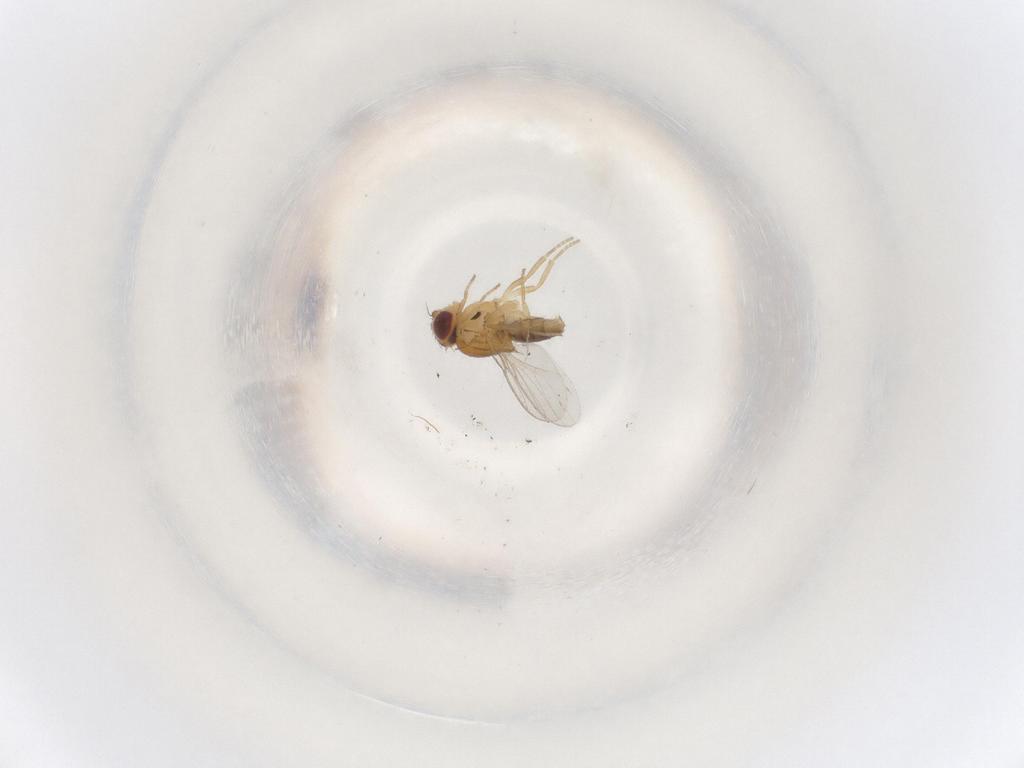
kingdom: Animalia
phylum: Arthropoda
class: Insecta
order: Diptera
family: Chloropidae
